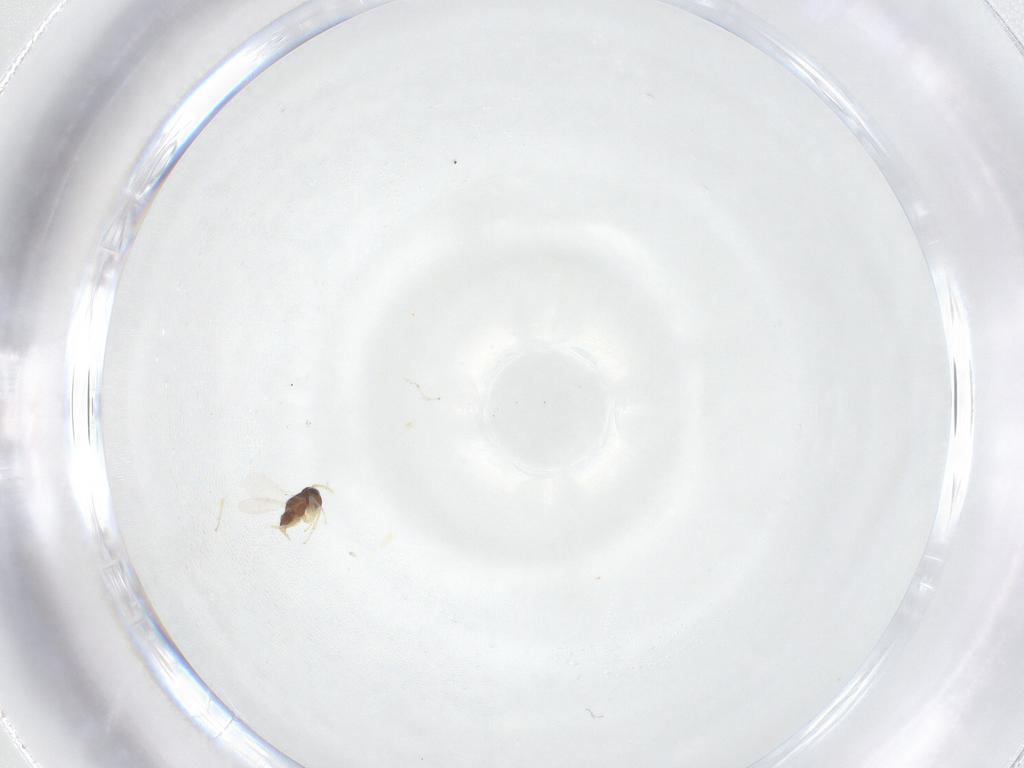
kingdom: Animalia
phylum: Arthropoda
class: Insecta
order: Hymenoptera
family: Encyrtidae
